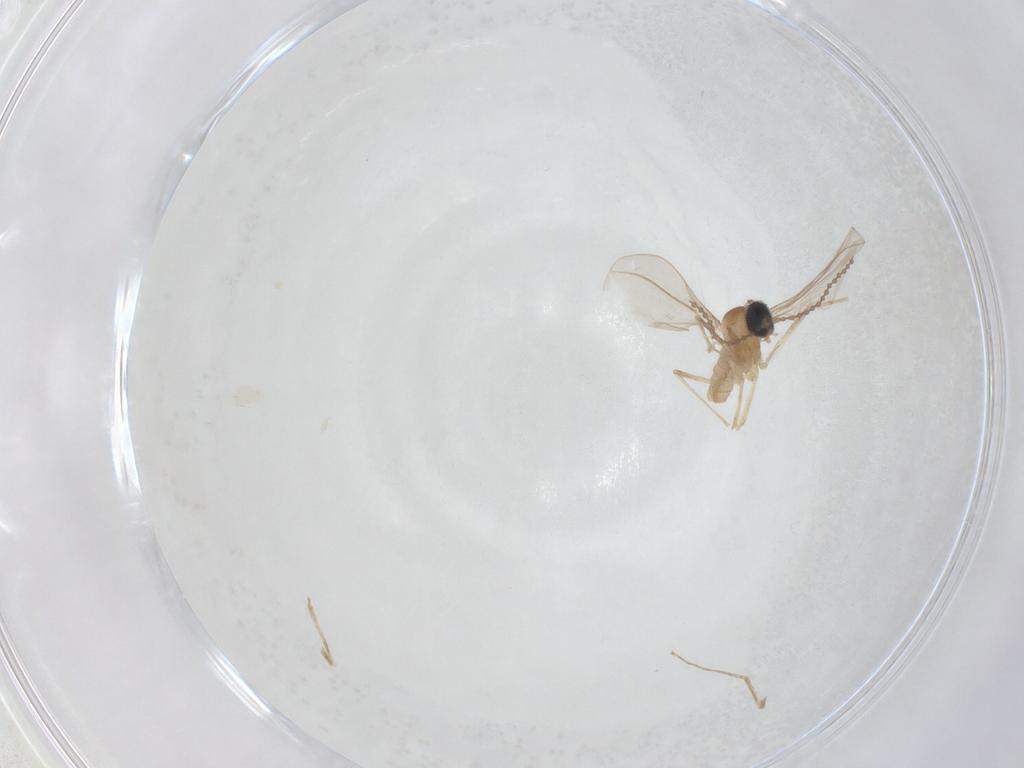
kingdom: Animalia
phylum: Arthropoda
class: Insecta
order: Diptera
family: Cecidomyiidae
